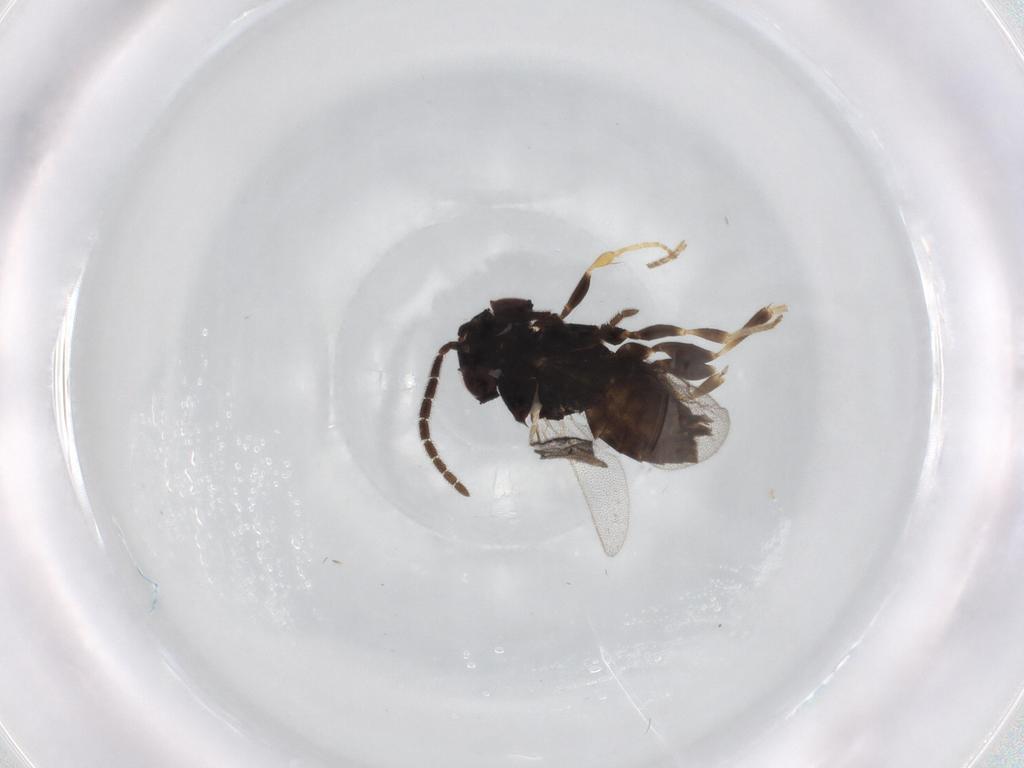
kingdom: Animalia
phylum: Arthropoda
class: Insecta
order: Hymenoptera
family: Dryinidae
